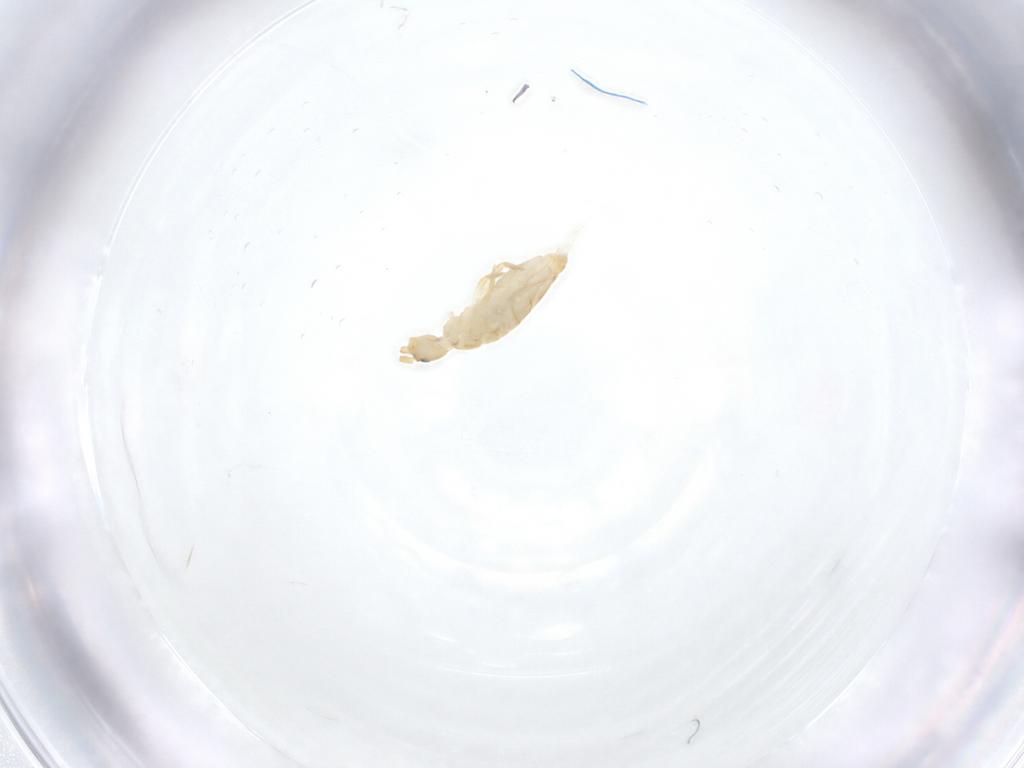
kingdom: Animalia
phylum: Arthropoda
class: Collembola
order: Entomobryomorpha
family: Entomobryidae
